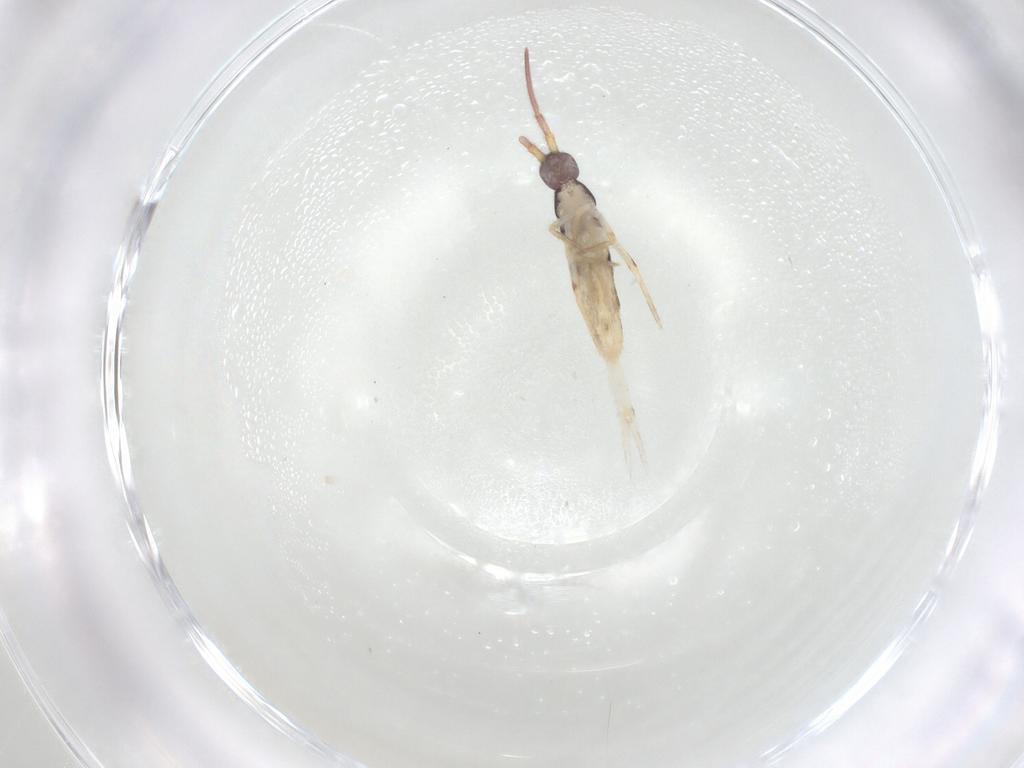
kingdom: Animalia
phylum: Arthropoda
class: Collembola
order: Entomobryomorpha
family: Entomobryidae
